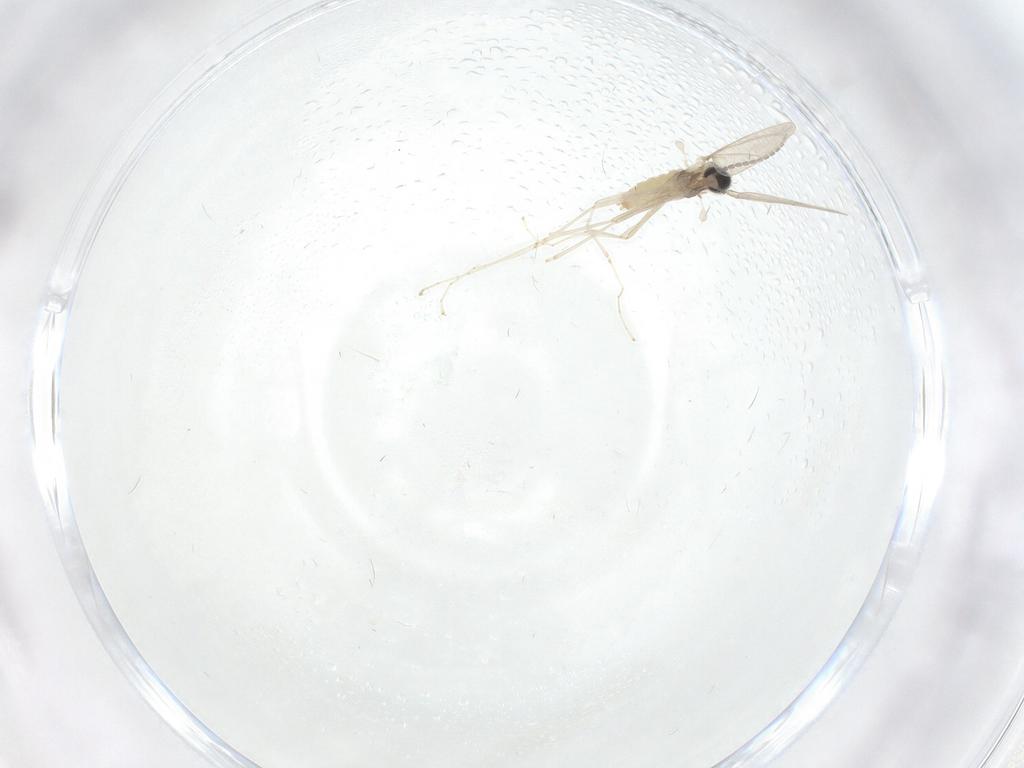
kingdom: Animalia
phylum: Arthropoda
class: Insecta
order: Diptera
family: Cecidomyiidae
